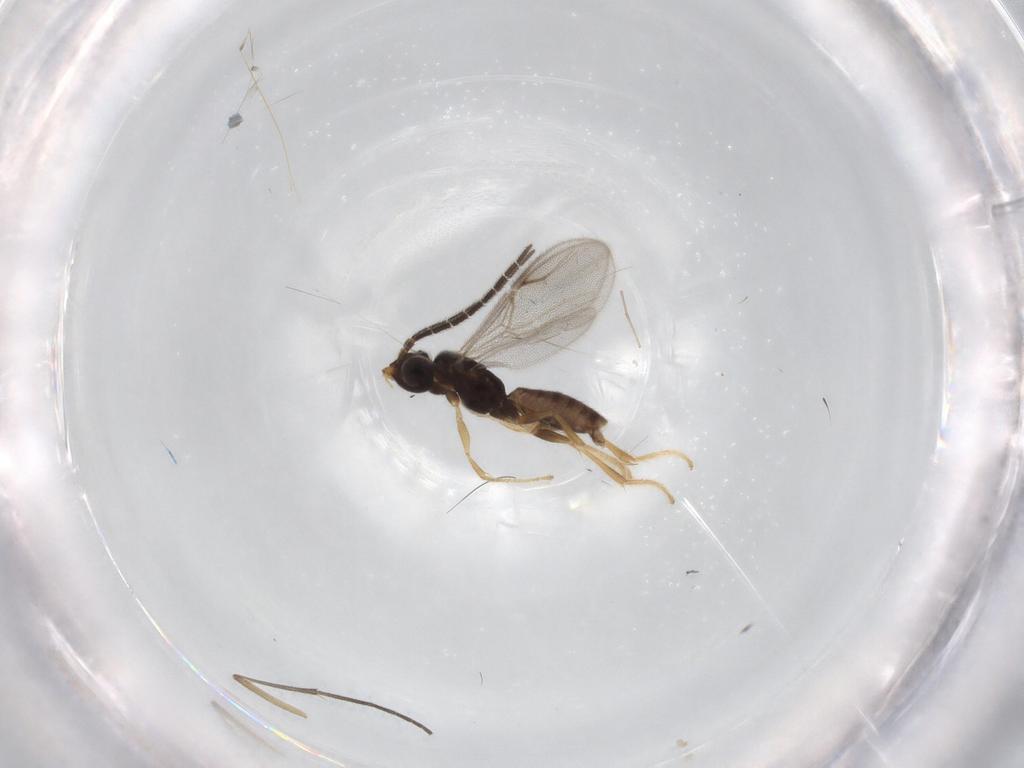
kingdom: Animalia
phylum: Arthropoda
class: Insecta
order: Hymenoptera
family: Dryinidae
